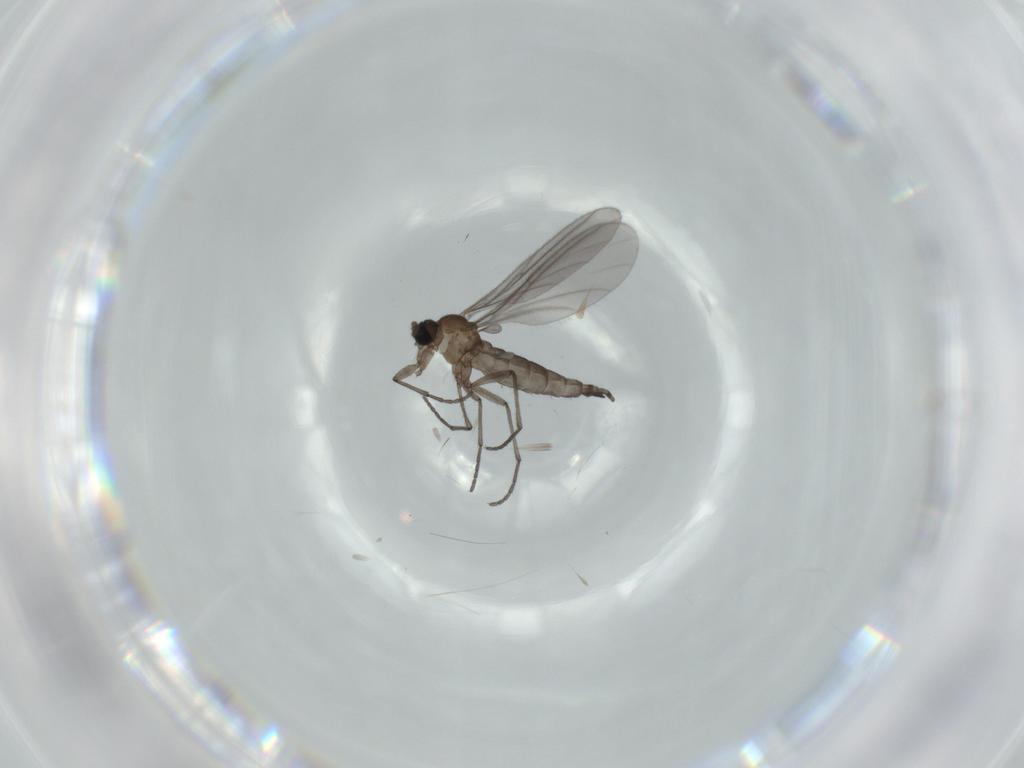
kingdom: Animalia
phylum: Arthropoda
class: Insecta
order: Diptera
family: Sciaridae
